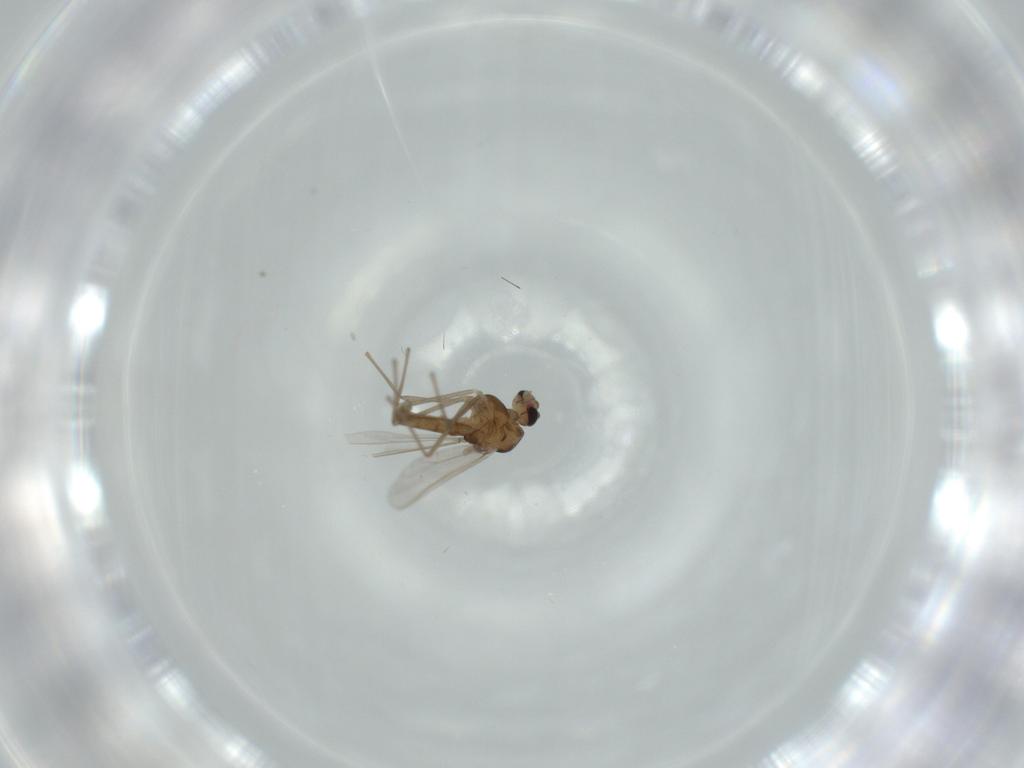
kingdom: Animalia
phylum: Arthropoda
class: Insecta
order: Diptera
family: Chironomidae
